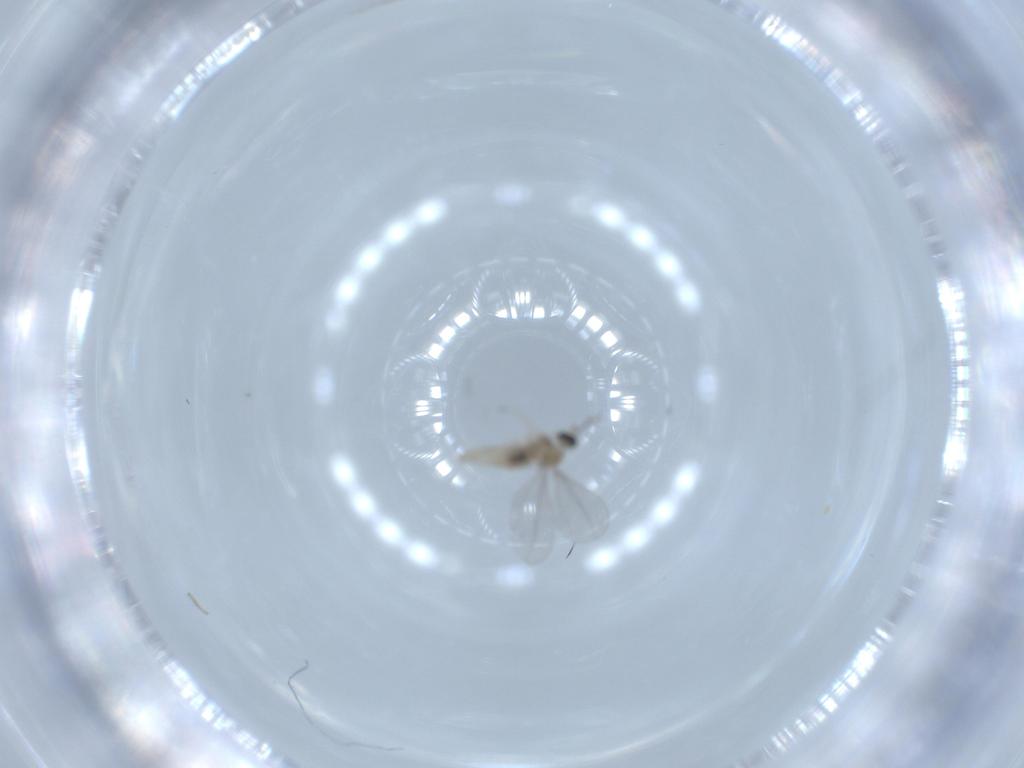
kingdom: Animalia
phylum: Arthropoda
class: Insecta
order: Diptera
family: Cecidomyiidae
